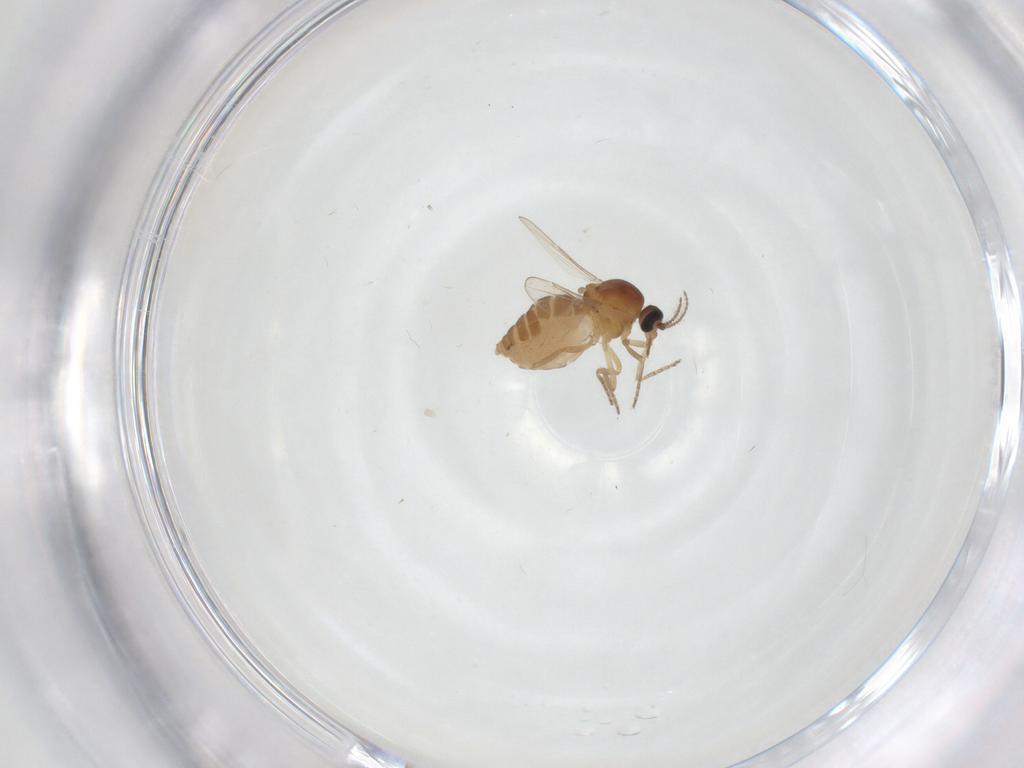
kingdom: Animalia
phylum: Arthropoda
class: Insecta
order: Diptera
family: Ceratopogonidae
